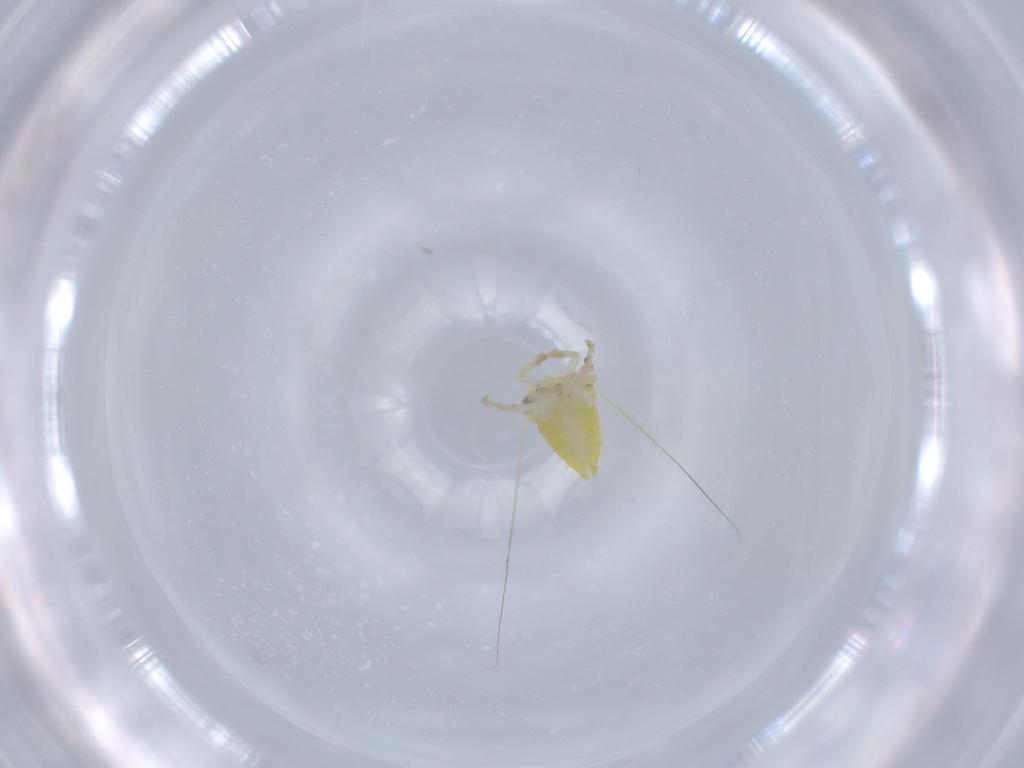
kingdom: Animalia
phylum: Arthropoda
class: Insecta
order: Hemiptera
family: Cicadellidae
